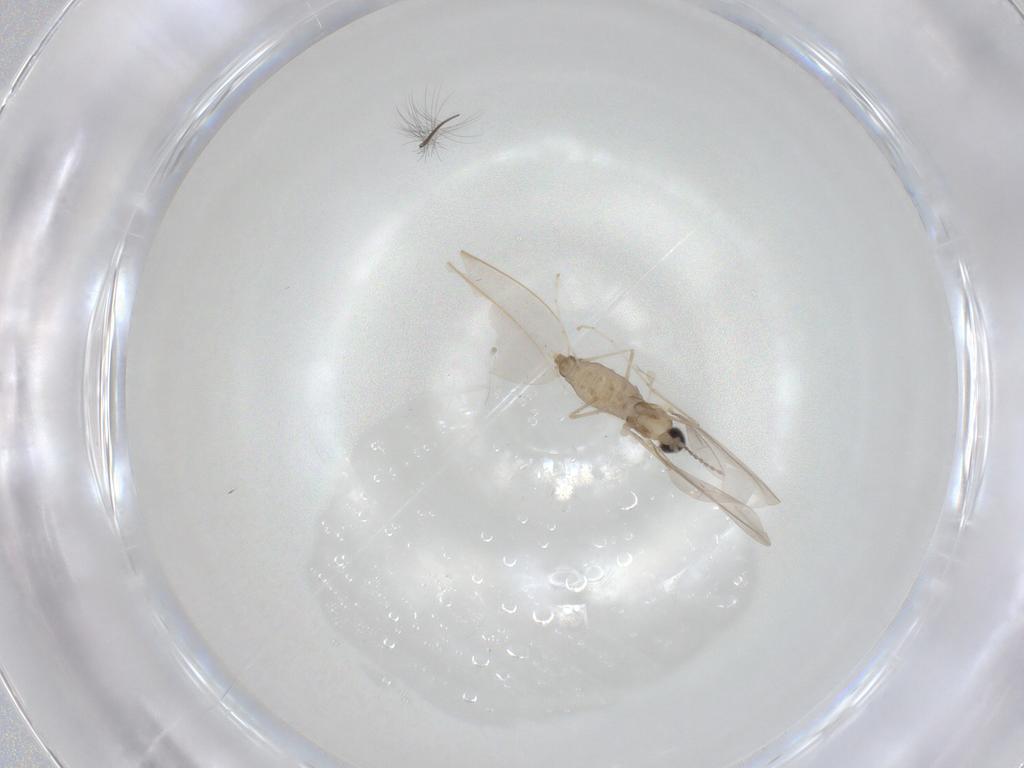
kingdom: Animalia
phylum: Arthropoda
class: Insecta
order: Diptera
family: Cecidomyiidae
